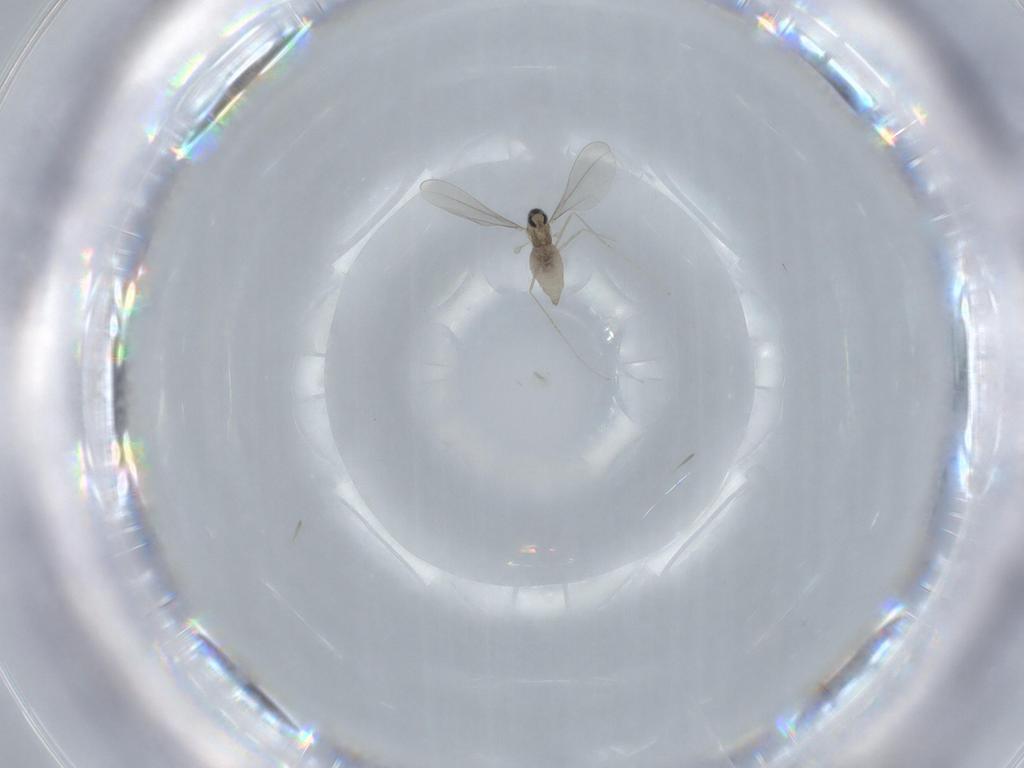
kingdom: Animalia
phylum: Arthropoda
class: Insecta
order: Diptera
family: Cecidomyiidae
